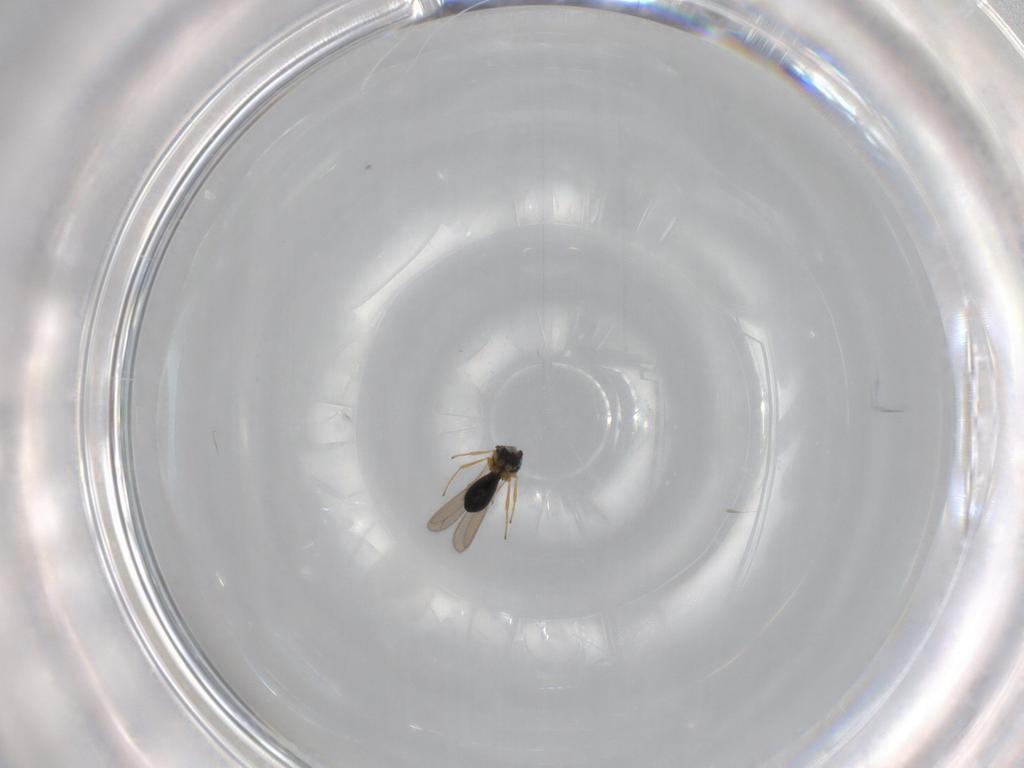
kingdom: Animalia
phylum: Arthropoda
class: Insecta
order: Hymenoptera
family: Scelionidae
